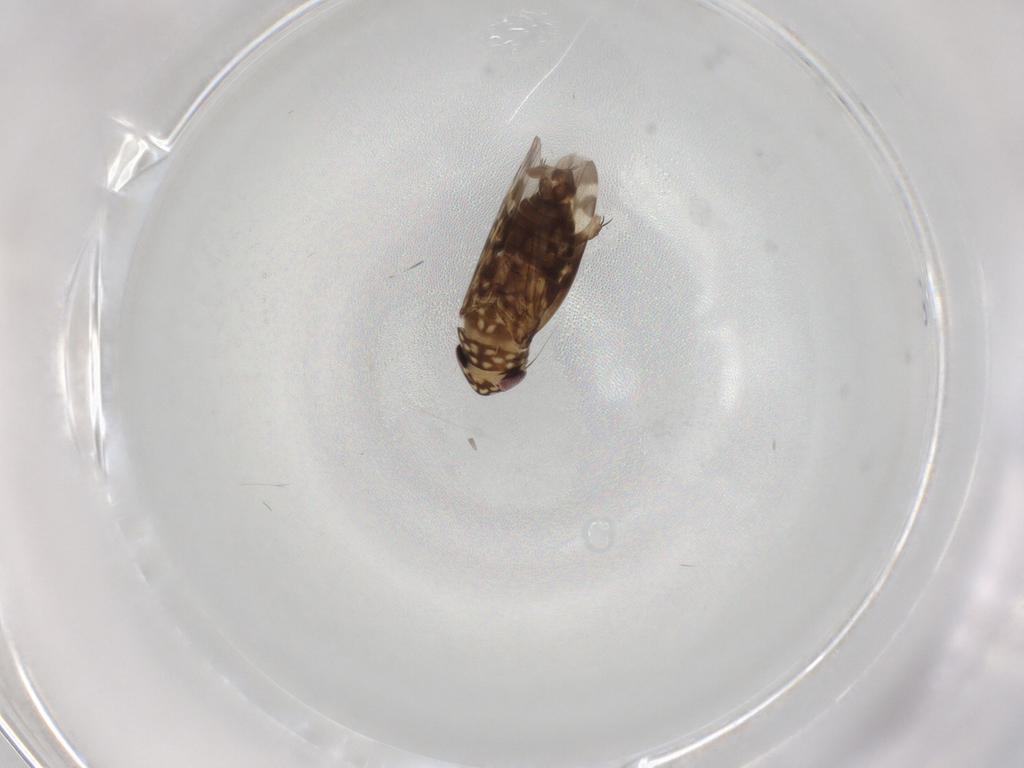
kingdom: Animalia
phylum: Arthropoda
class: Insecta
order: Hemiptera
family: Cicadellidae
